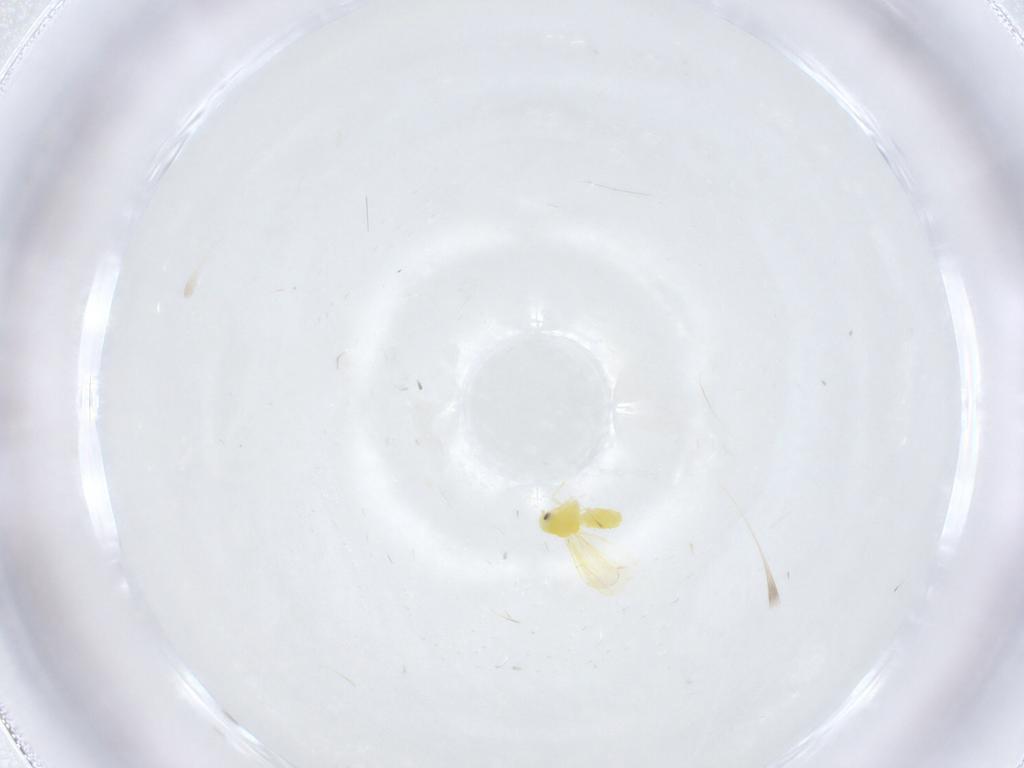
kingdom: Animalia
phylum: Arthropoda
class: Insecta
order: Hemiptera
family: Aleyrodidae
